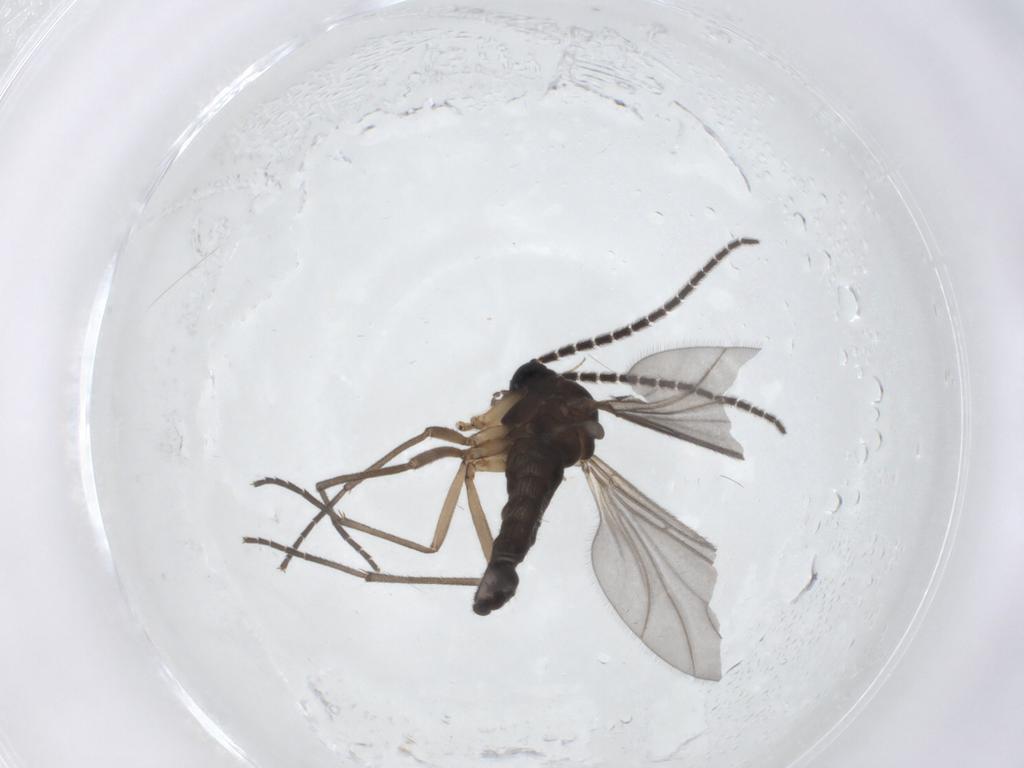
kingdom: Animalia
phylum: Arthropoda
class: Insecta
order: Diptera
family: Sciaridae
